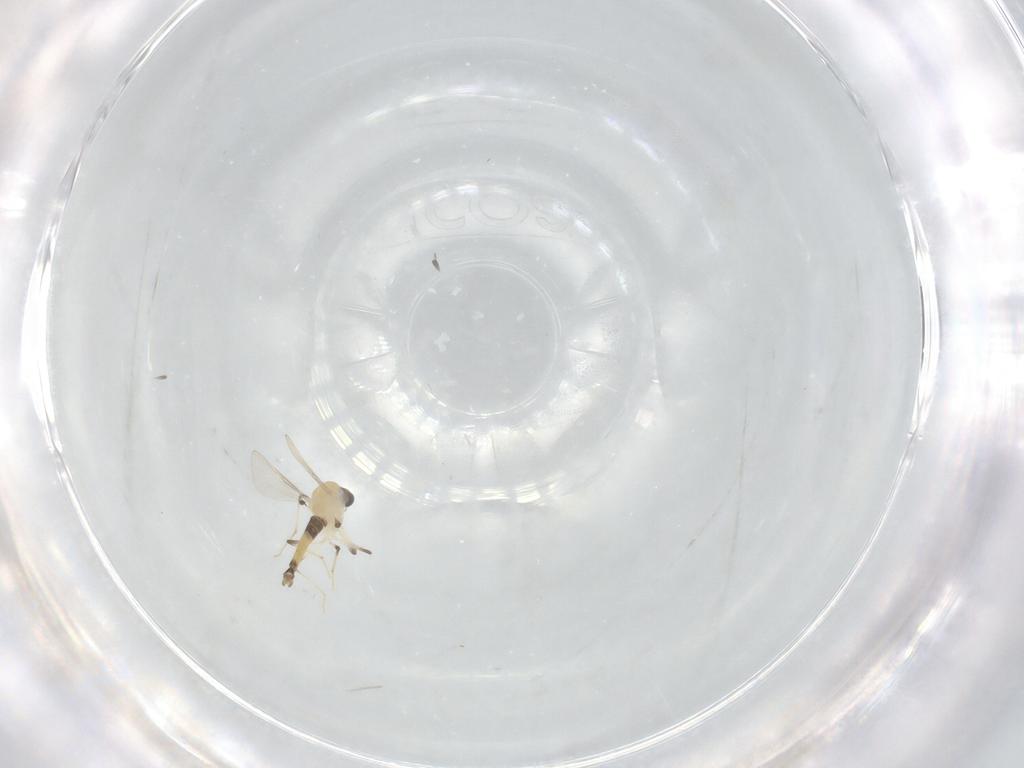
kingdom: Animalia
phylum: Arthropoda
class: Insecta
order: Diptera
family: Chironomidae
